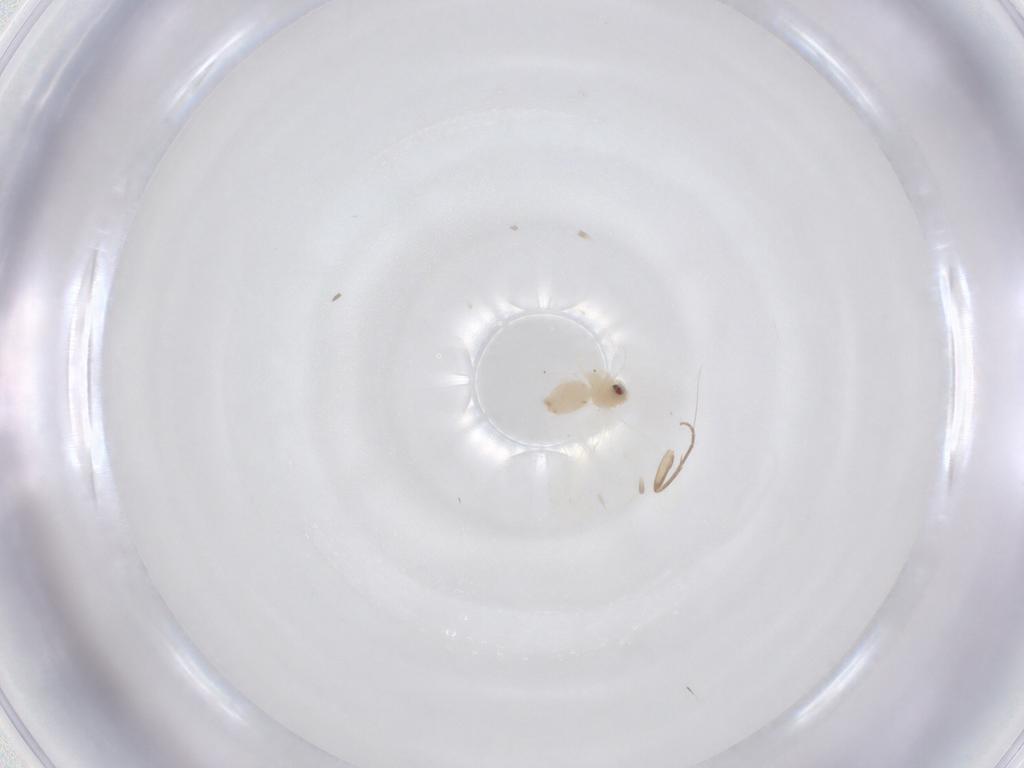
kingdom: Animalia
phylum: Arthropoda
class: Insecta
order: Hemiptera
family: Aleyrodidae
